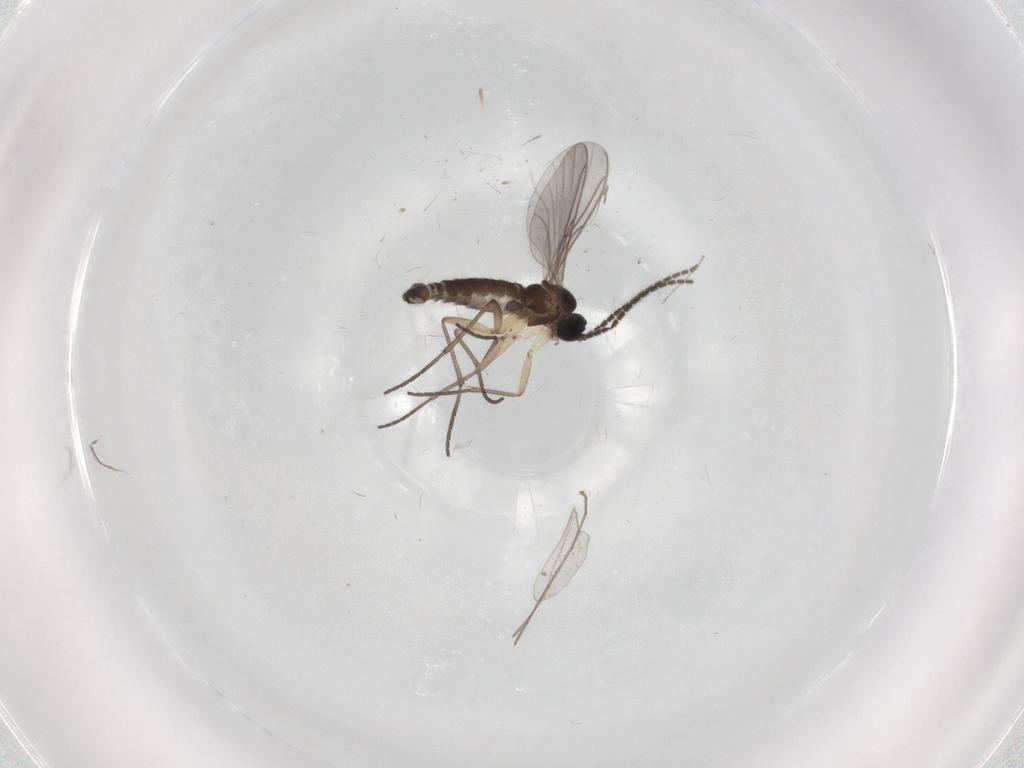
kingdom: Animalia
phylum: Arthropoda
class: Insecta
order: Diptera
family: Sciaridae
